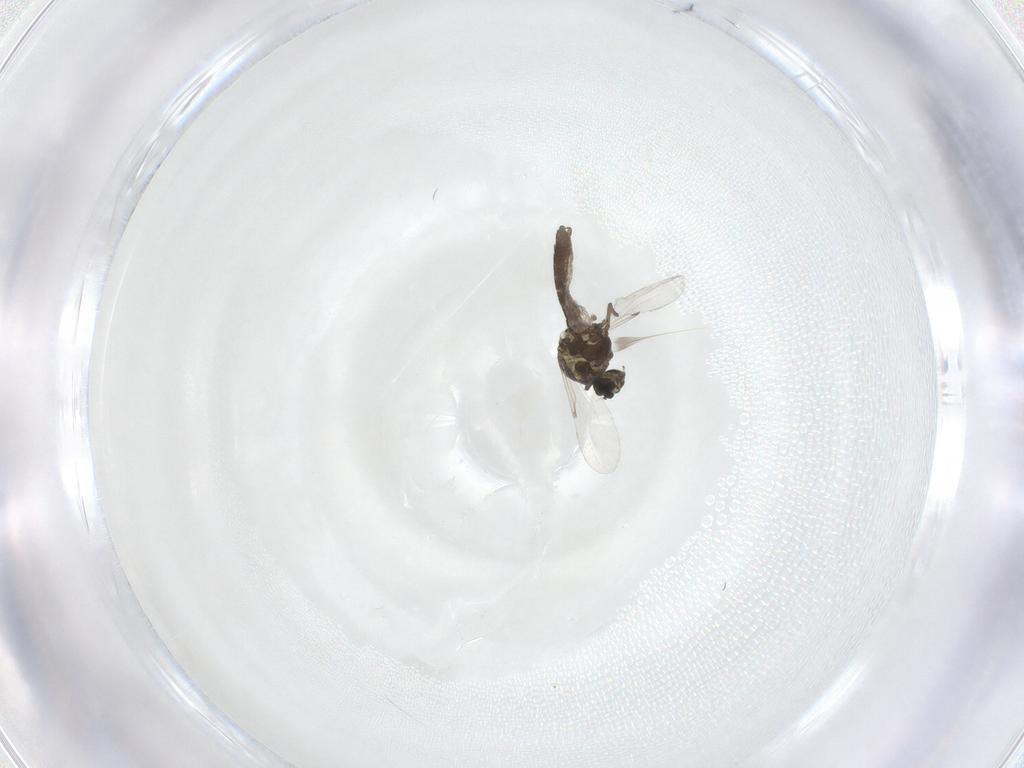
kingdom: Animalia
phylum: Arthropoda
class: Insecta
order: Diptera
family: Ceratopogonidae
